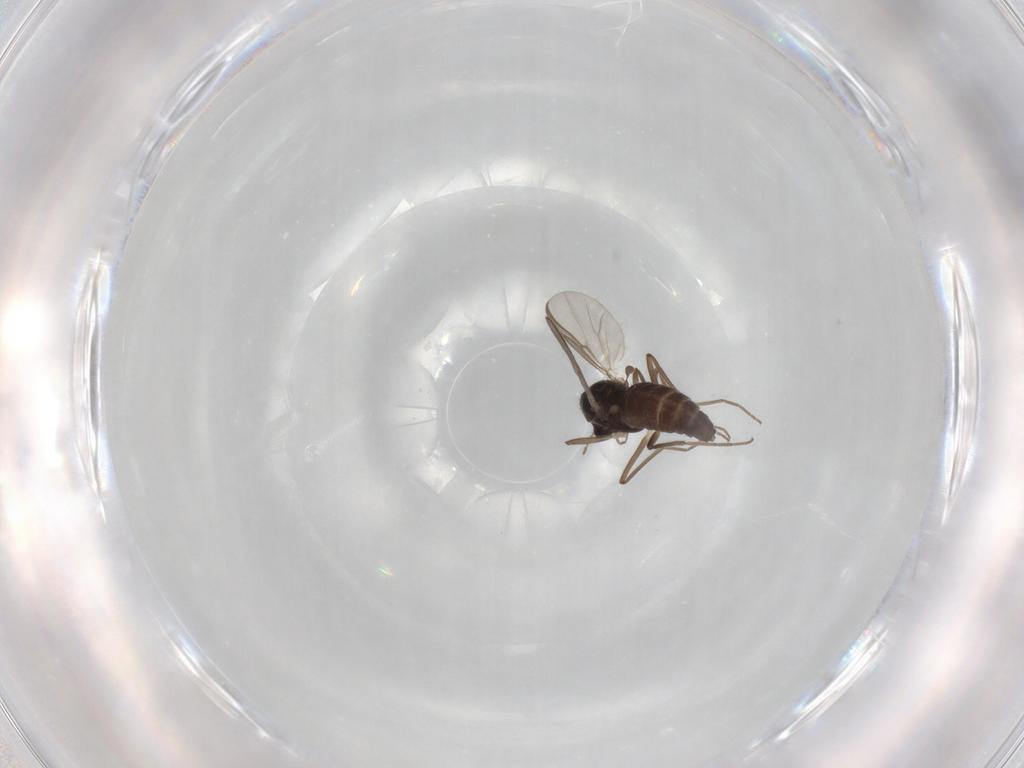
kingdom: Animalia
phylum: Arthropoda
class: Insecta
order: Diptera
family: Chironomidae
